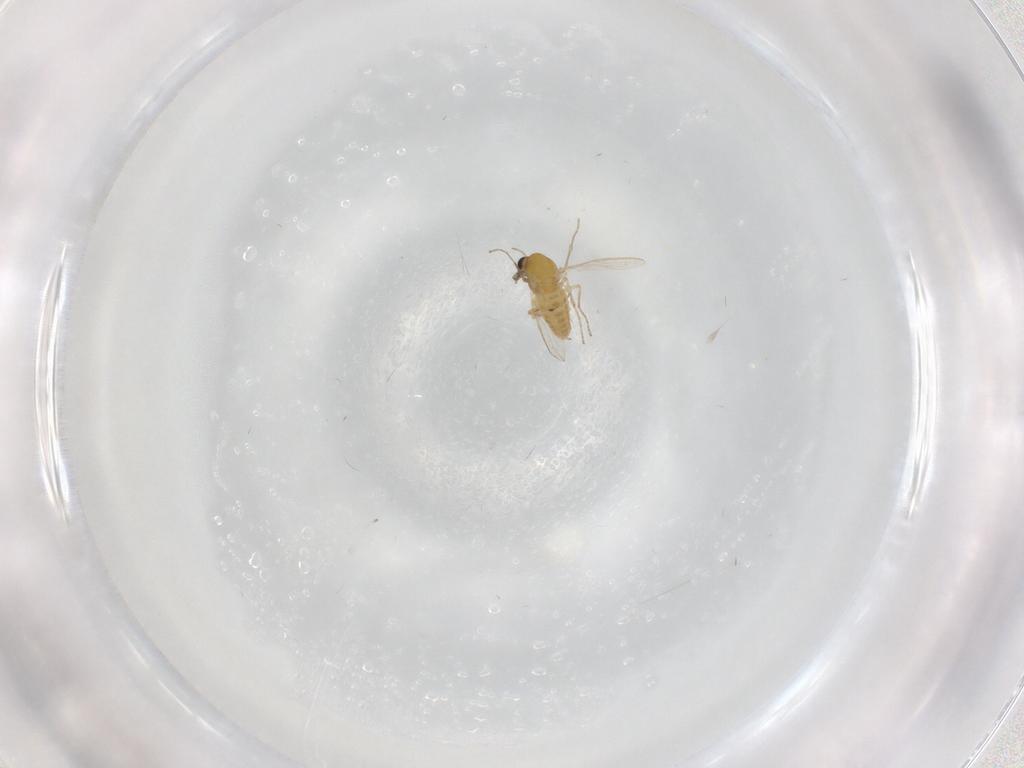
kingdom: Animalia
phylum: Arthropoda
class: Insecta
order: Diptera
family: Chironomidae
